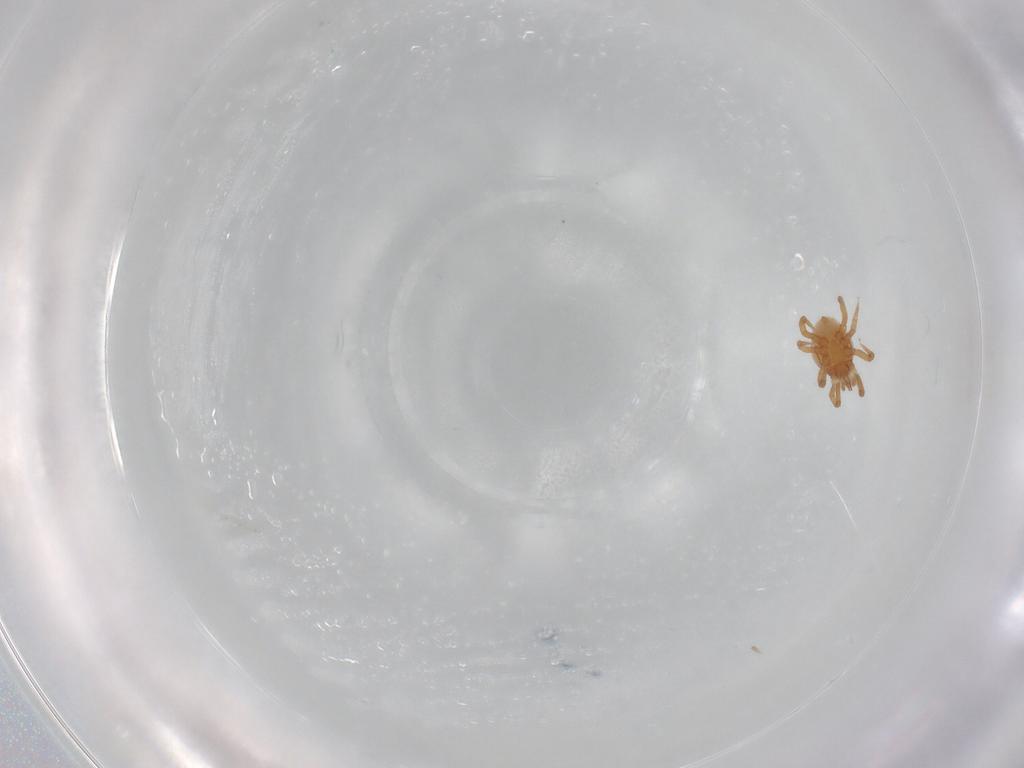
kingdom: Animalia
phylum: Arthropoda
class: Arachnida
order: Mesostigmata
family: Parasitidae
